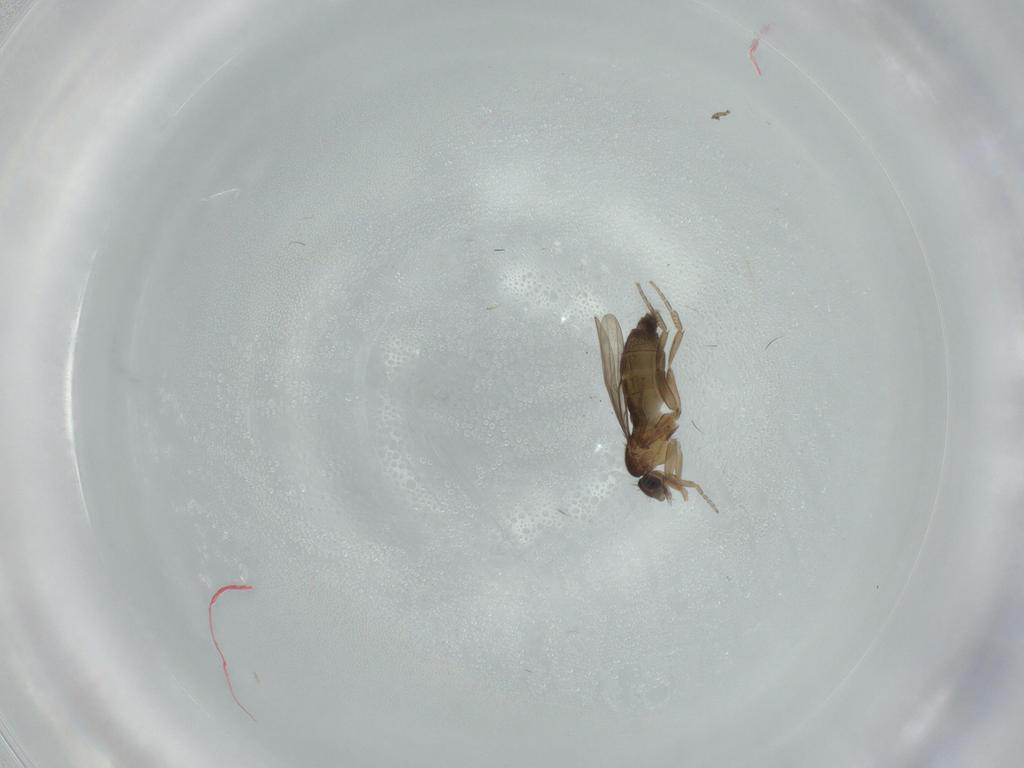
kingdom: Animalia
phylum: Arthropoda
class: Insecta
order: Diptera
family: Phoridae
